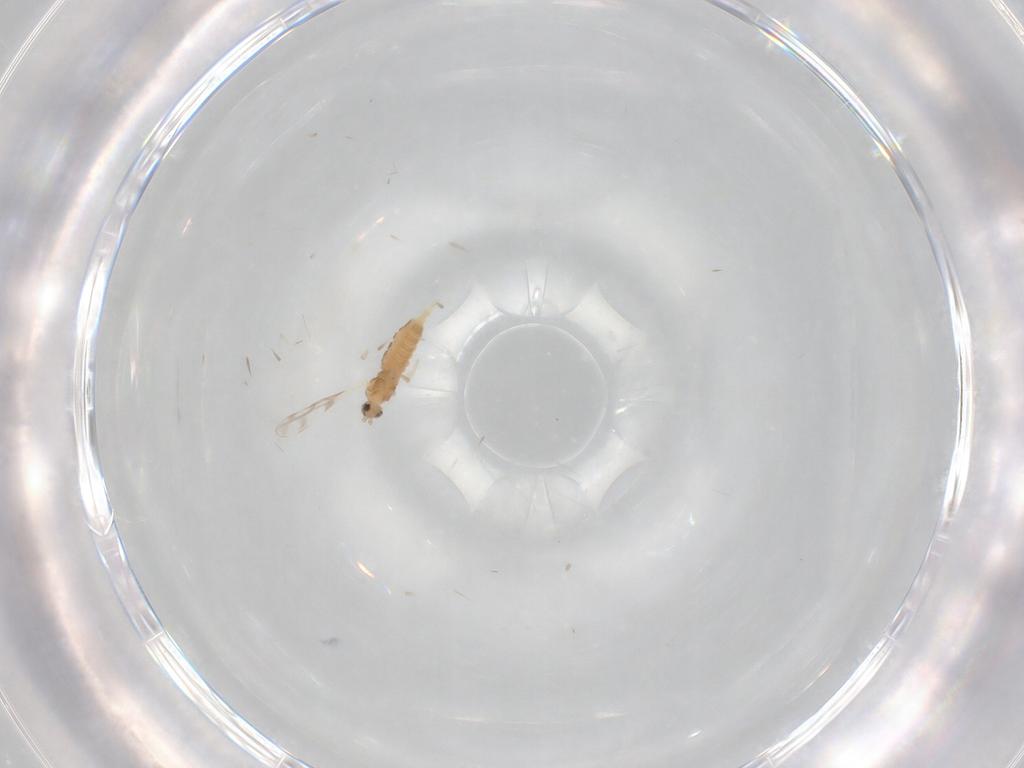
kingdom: Animalia
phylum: Arthropoda
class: Insecta
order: Diptera
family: Cecidomyiidae
